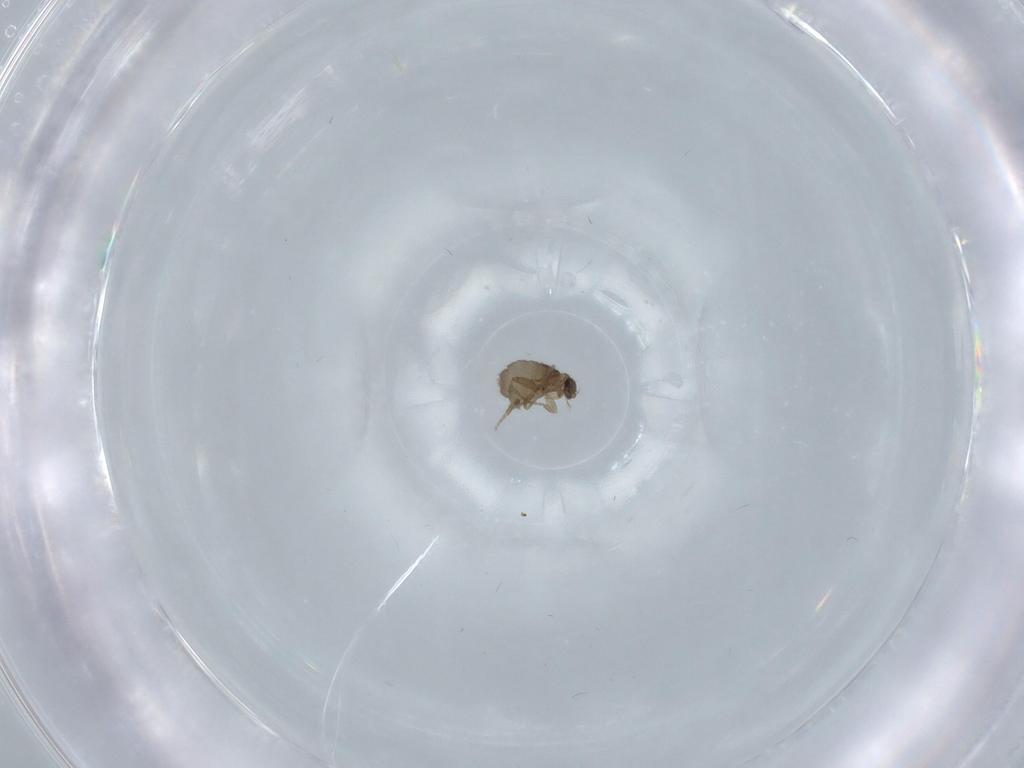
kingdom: Animalia
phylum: Arthropoda
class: Insecta
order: Diptera
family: Phoridae
